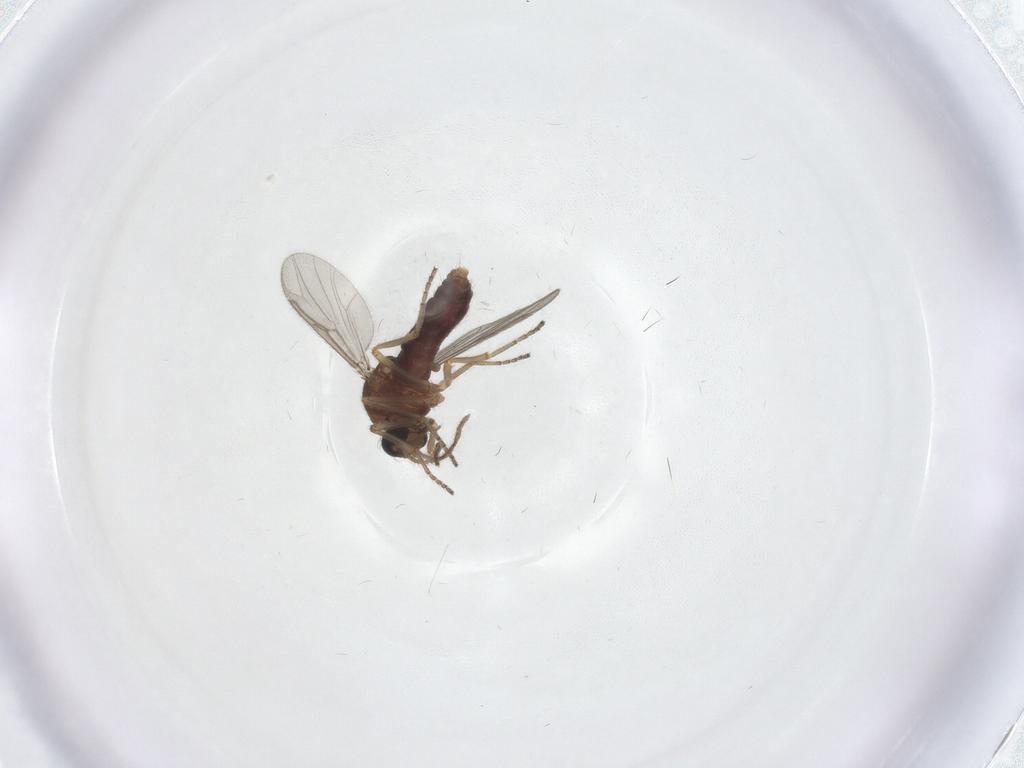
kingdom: Animalia
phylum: Arthropoda
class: Insecta
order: Diptera
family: Ceratopogonidae
